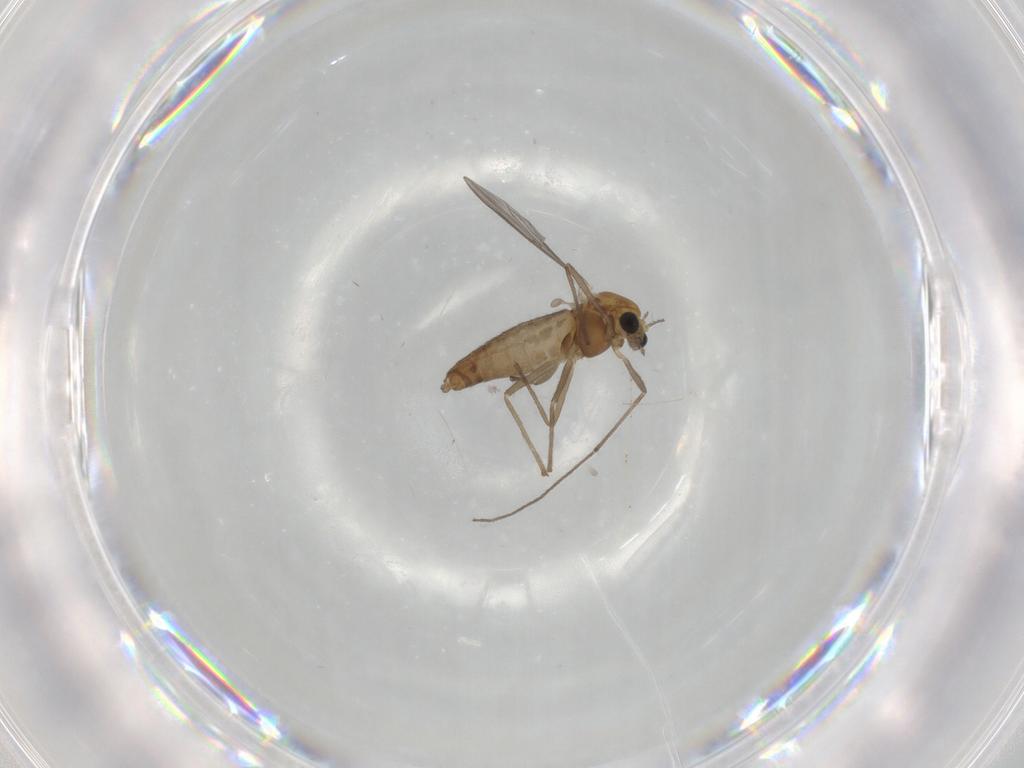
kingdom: Animalia
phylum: Arthropoda
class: Insecta
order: Diptera
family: Chironomidae
